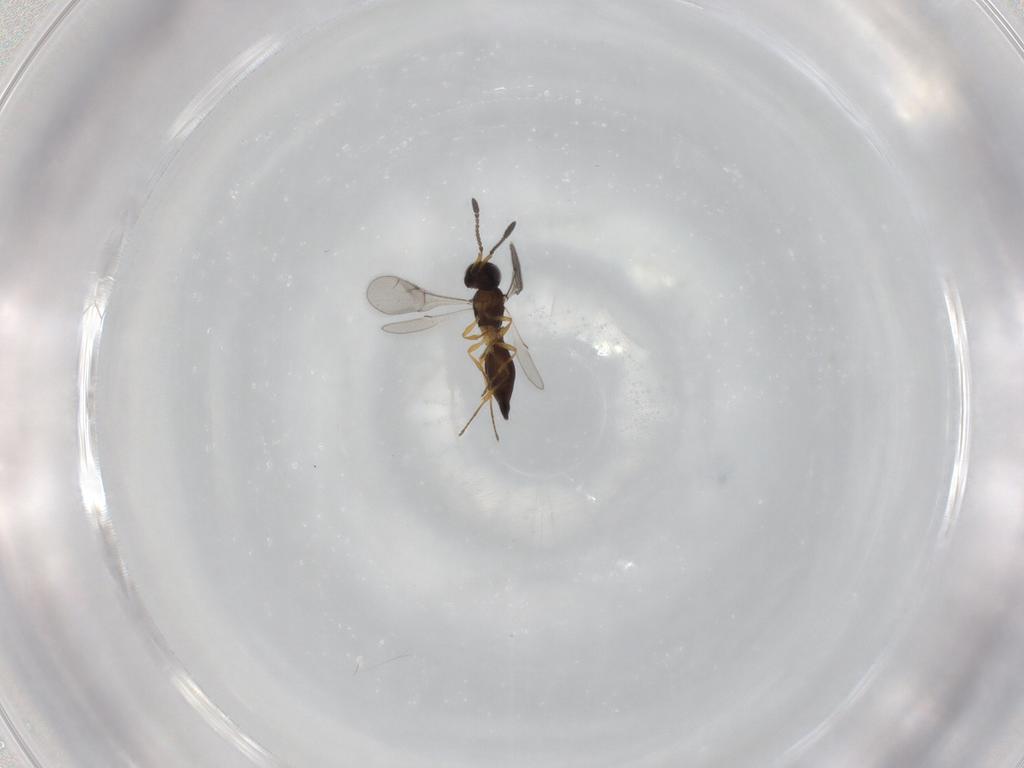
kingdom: Animalia
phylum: Arthropoda
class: Insecta
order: Hymenoptera
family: Scelionidae
